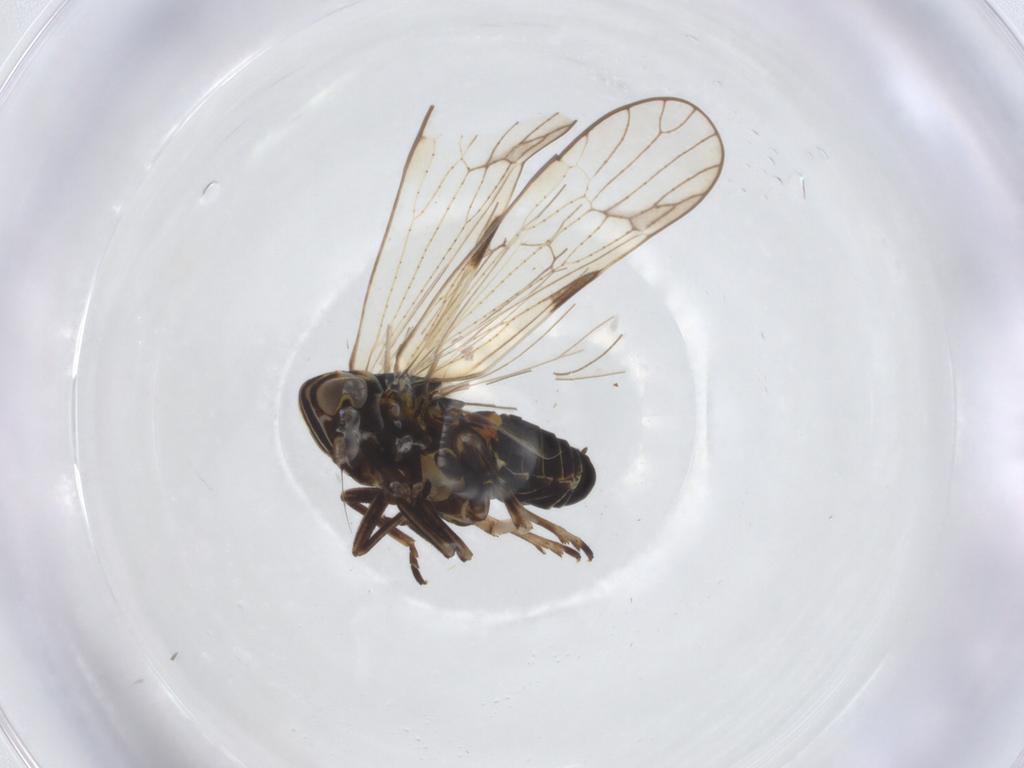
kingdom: Animalia
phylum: Arthropoda
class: Insecta
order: Hemiptera
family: Delphacidae
